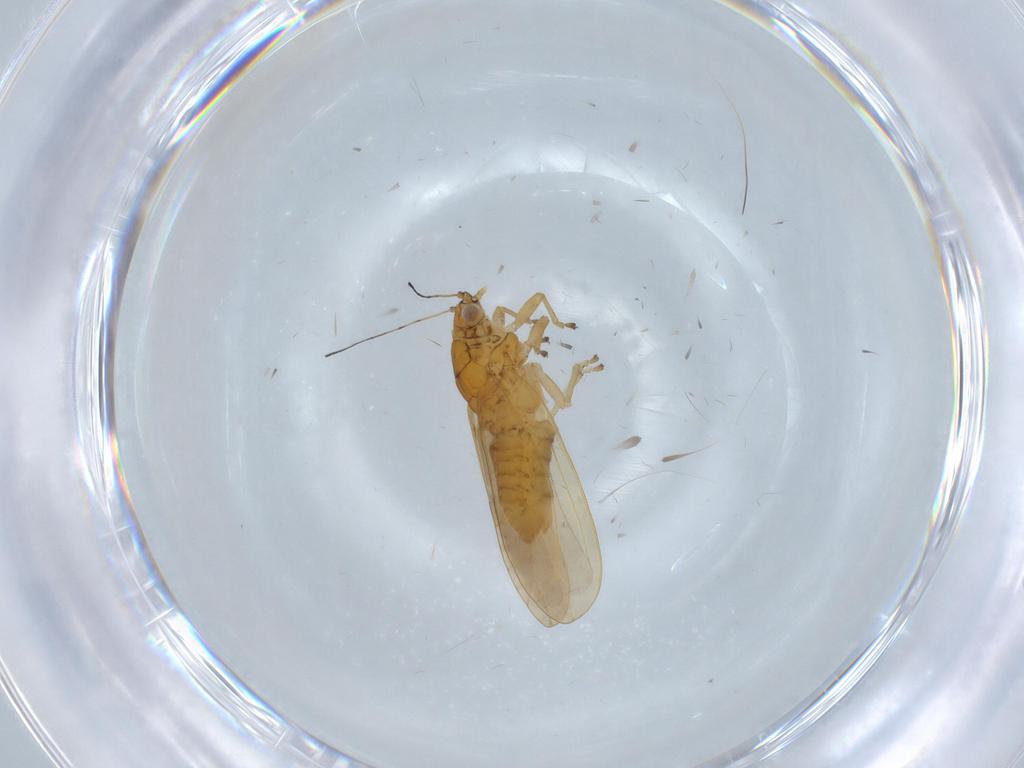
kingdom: Animalia
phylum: Arthropoda
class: Insecta
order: Hemiptera
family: Triozidae
